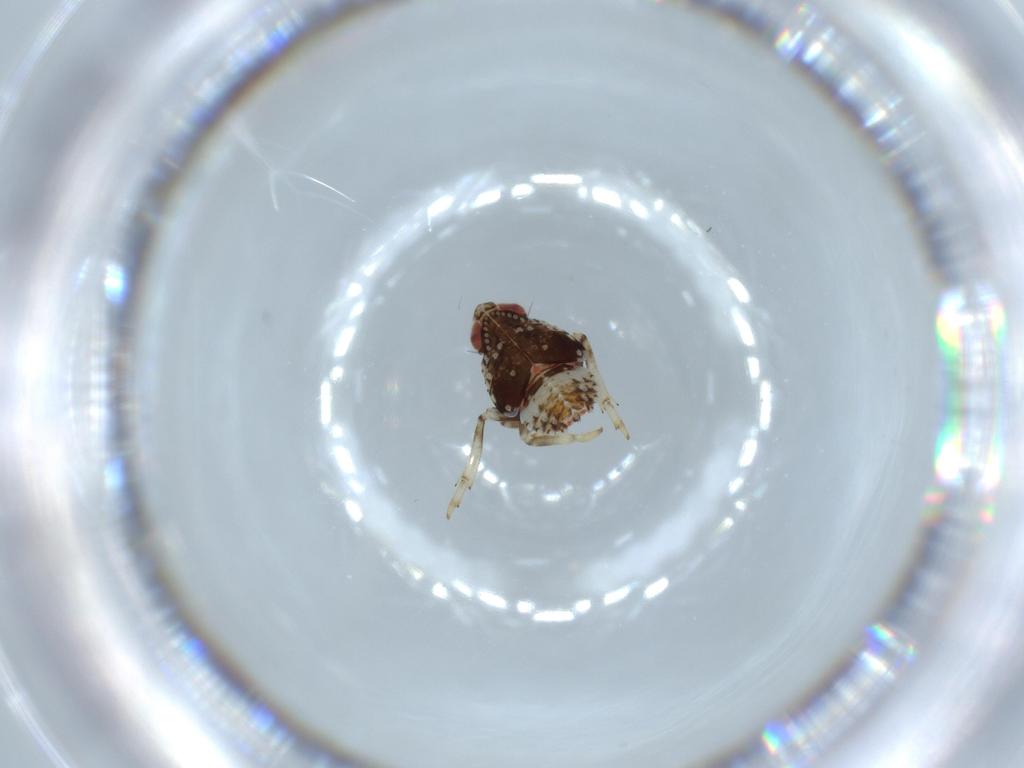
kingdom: Animalia
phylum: Arthropoda
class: Insecta
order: Hemiptera
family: Issidae
